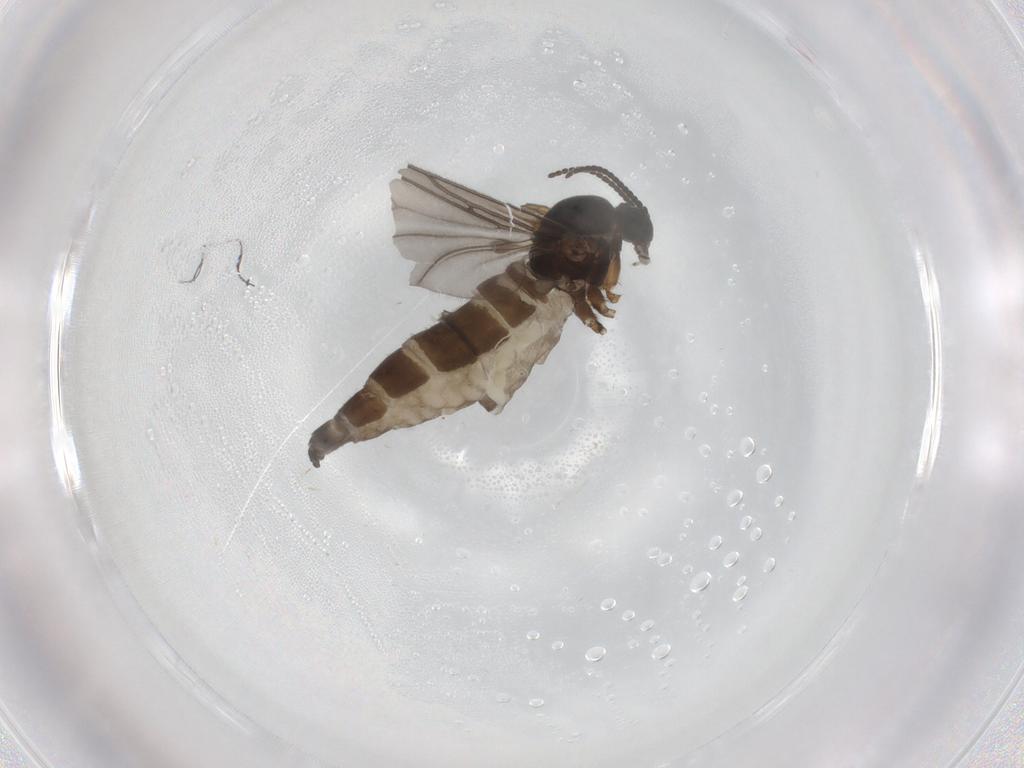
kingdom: Animalia
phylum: Arthropoda
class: Insecta
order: Diptera
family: Sciaridae
